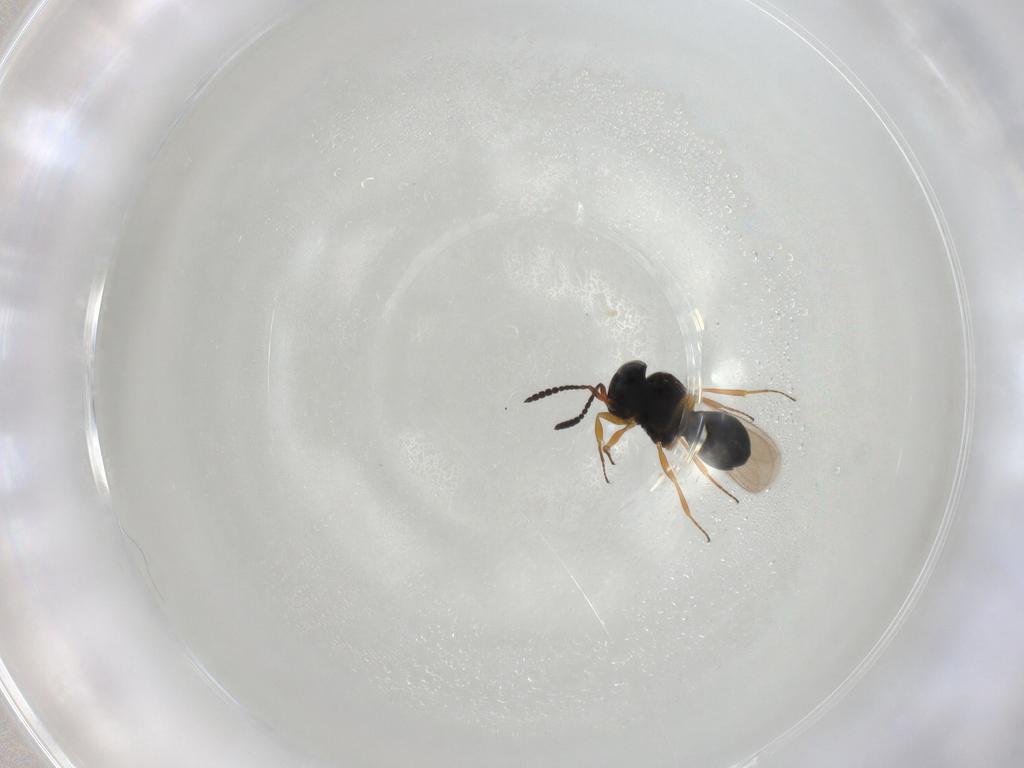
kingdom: Animalia
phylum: Arthropoda
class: Insecta
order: Hymenoptera
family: Scelionidae
